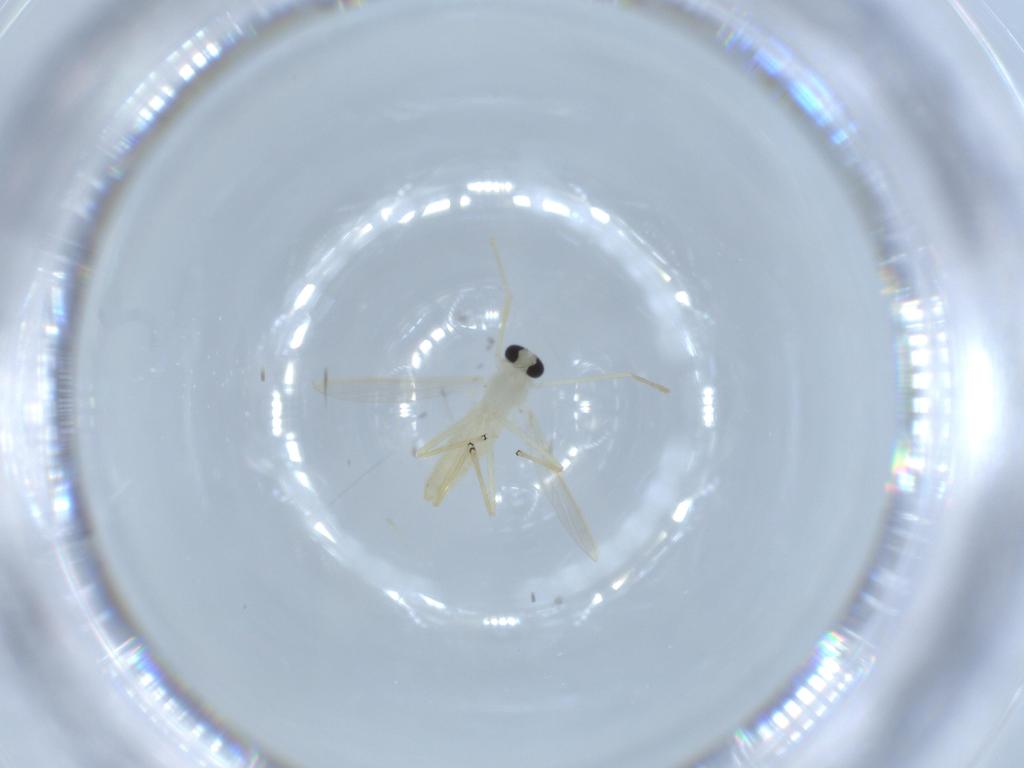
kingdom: Animalia
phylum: Arthropoda
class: Insecta
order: Diptera
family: Chironomidae
